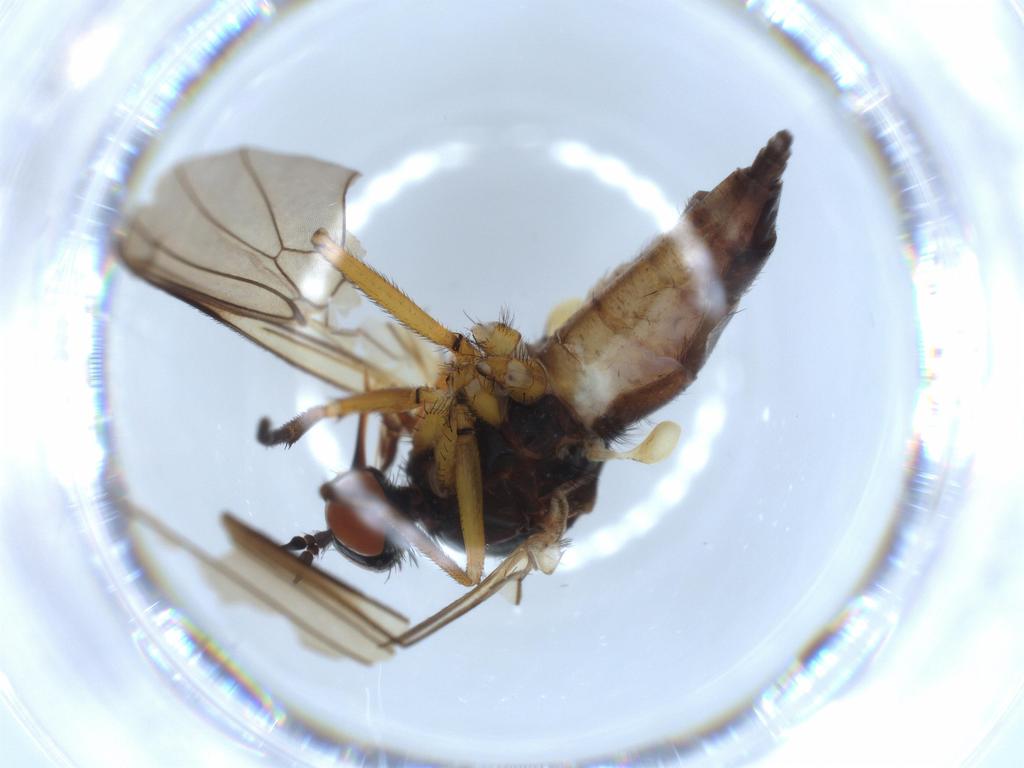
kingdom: Animalia
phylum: Arthropoda
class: Insecta
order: Diptera
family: Empididae
